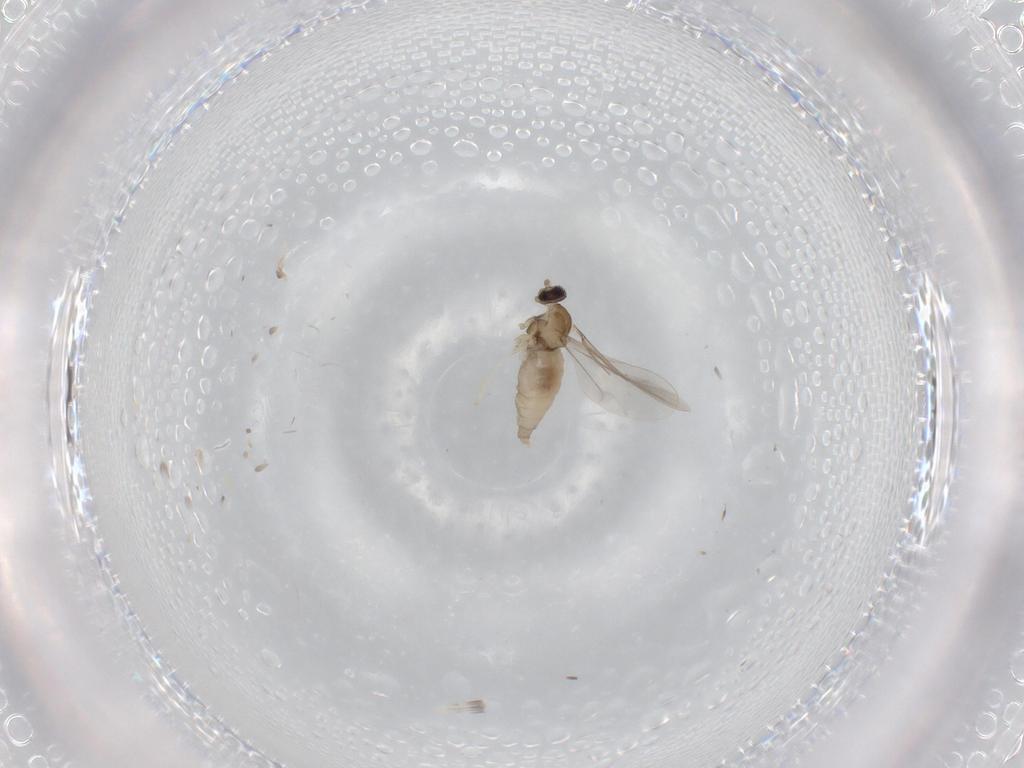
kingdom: Animalia
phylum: Arthropoda
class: Insecta
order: Diptera
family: Cecidomyiidae
